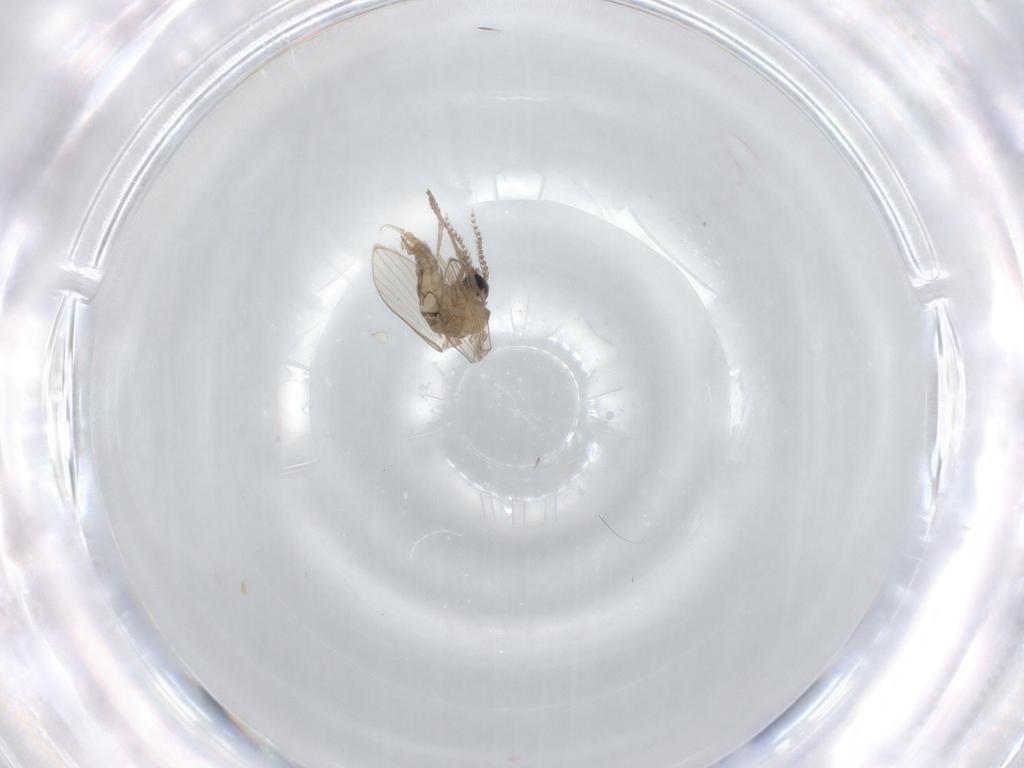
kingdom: Animalia
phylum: Arthropoda
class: Insecta
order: Diptera
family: Psychodidae
